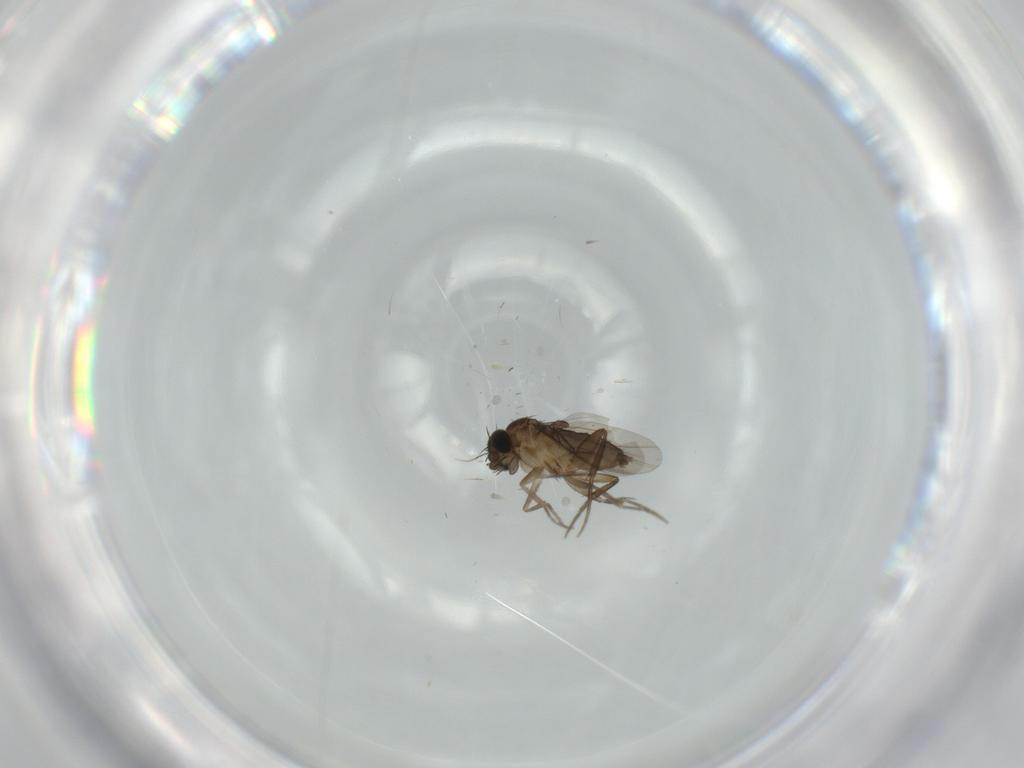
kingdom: Animalia
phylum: Arthropoda
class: Insecta
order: Diptera
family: Phoridae
